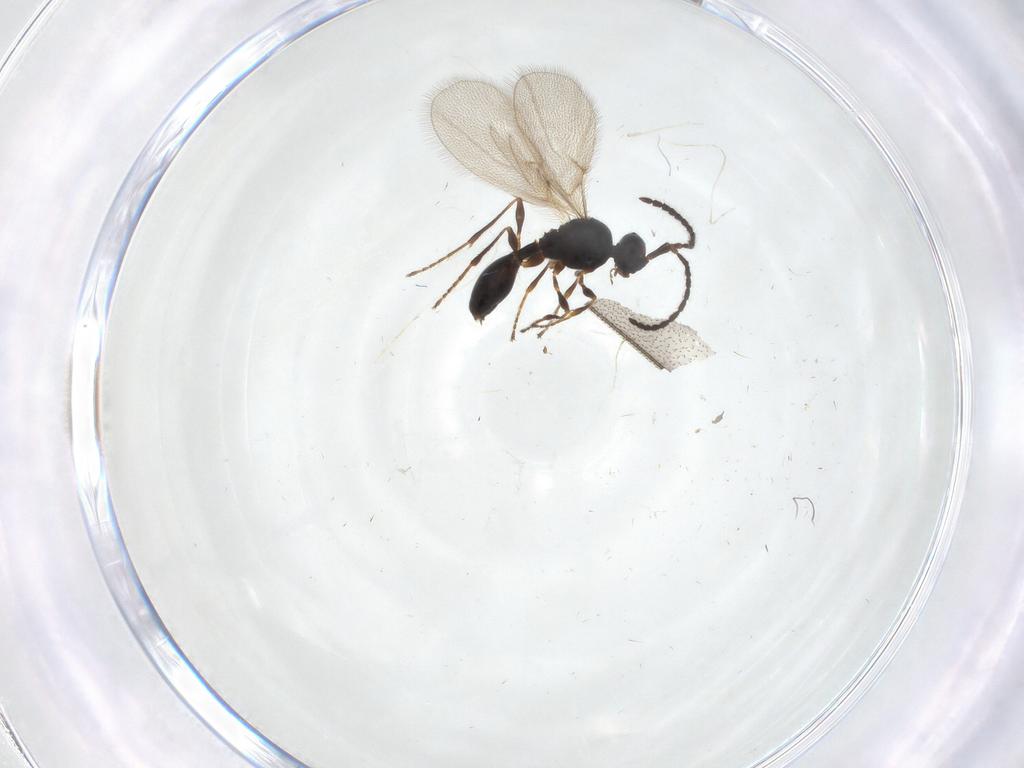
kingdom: Animalia
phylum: Arthropoda
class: Insecta
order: Hymenoptera
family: Diapriidae
